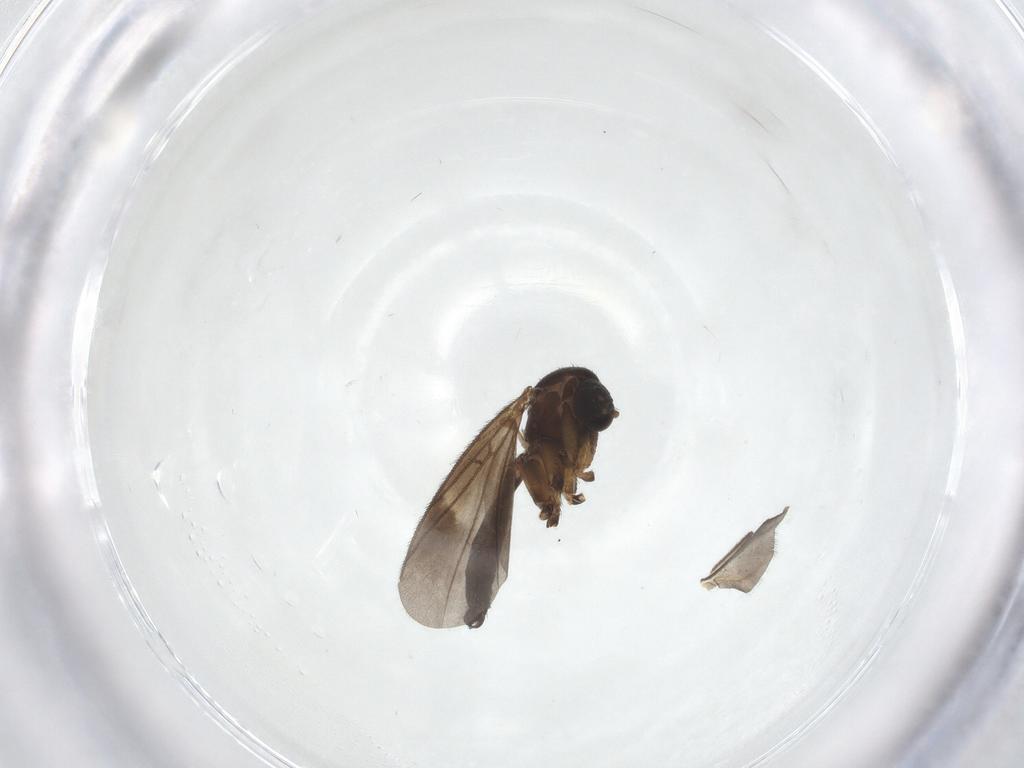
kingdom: Animalia
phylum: Arthropoda
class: Insecta
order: Diptera
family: Mycetophilidae
